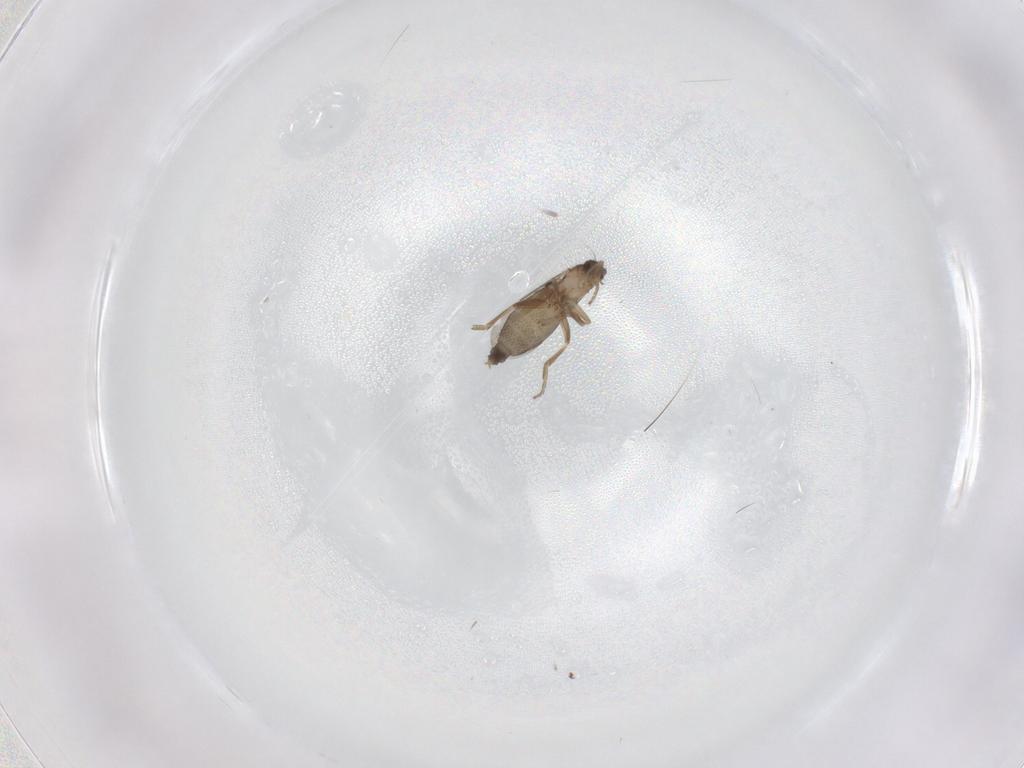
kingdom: Animalia
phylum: Arthropoda
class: Insecta
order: Diptera
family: Phoridae
